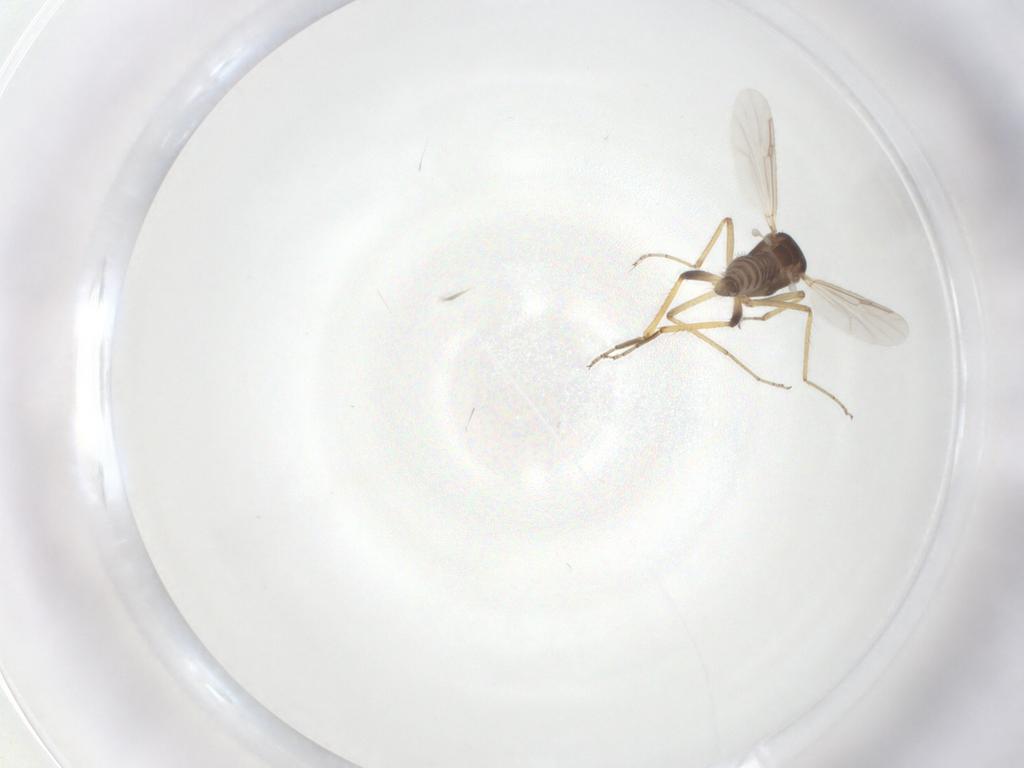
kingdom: Animalia
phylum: Arthropoda
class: Insecta
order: Diptera
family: Ceratopogonidae
